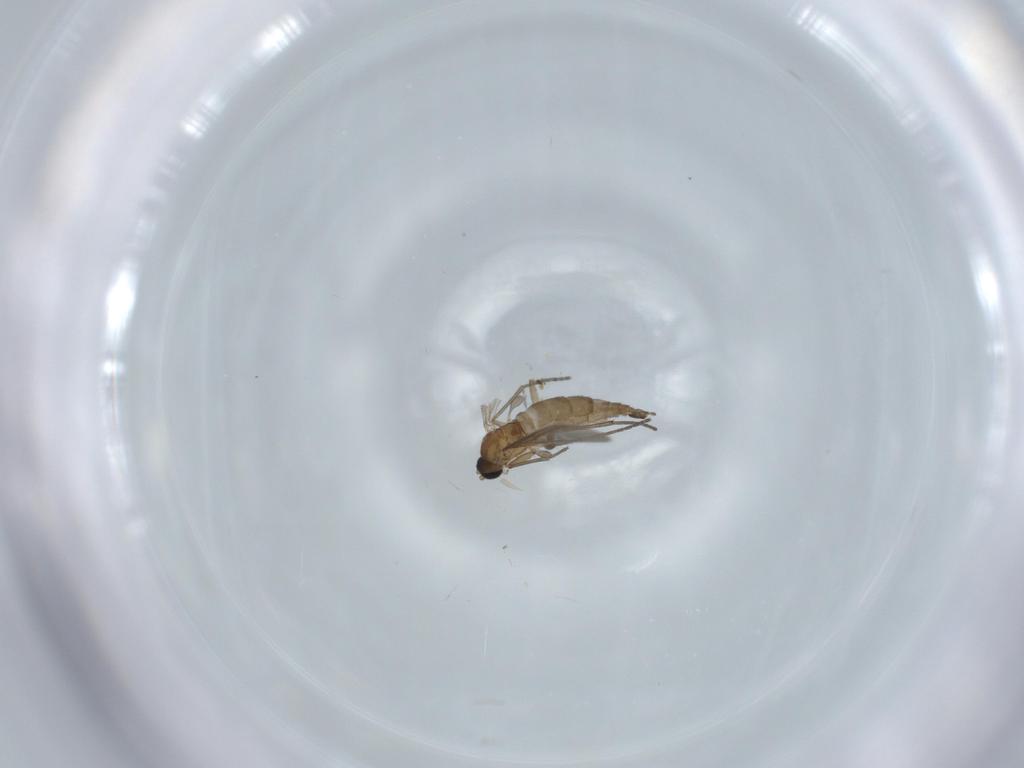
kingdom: Animalia
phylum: Arthropoda
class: Insecta
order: Diptera
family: Sciaridae
